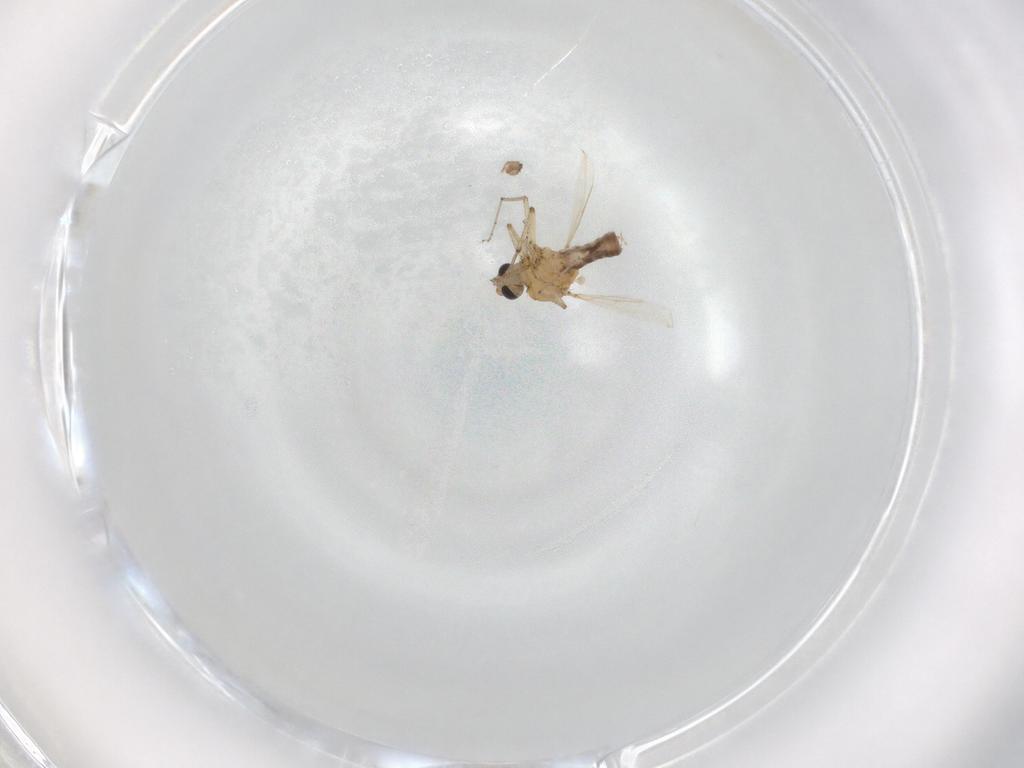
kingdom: Animalia
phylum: Arthropoda
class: Insecta
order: Diptera
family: Ceratopogonidae
